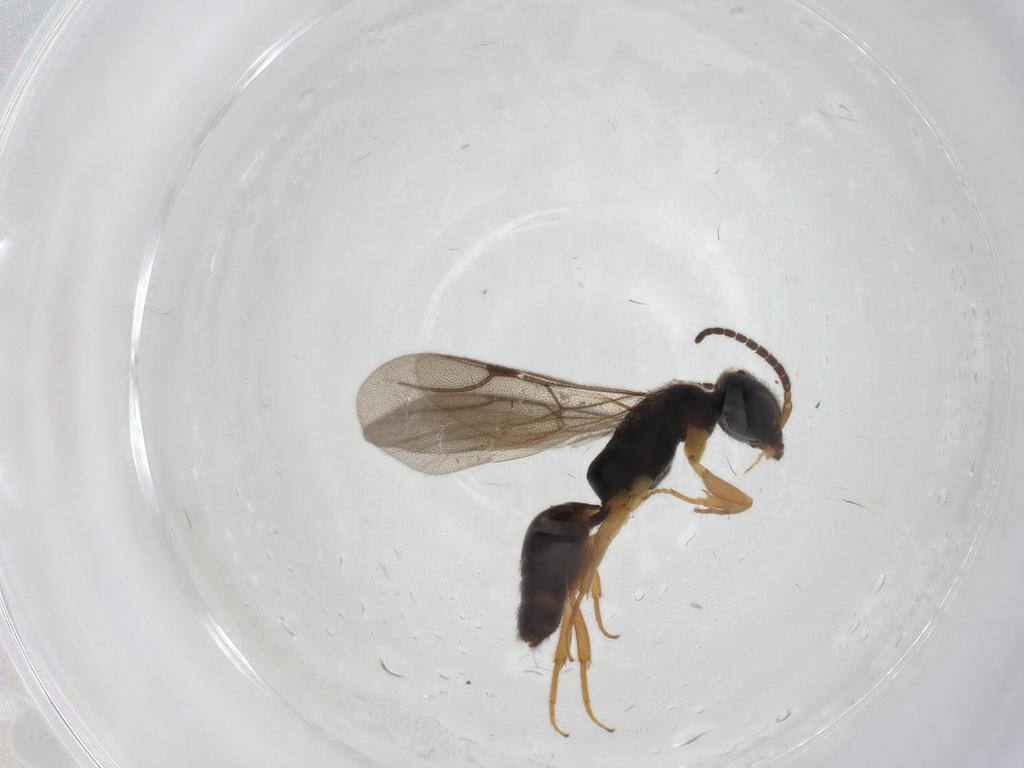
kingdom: Animalia
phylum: Arthropoda
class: Insecta
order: Hymenoptera
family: Bethylidae
